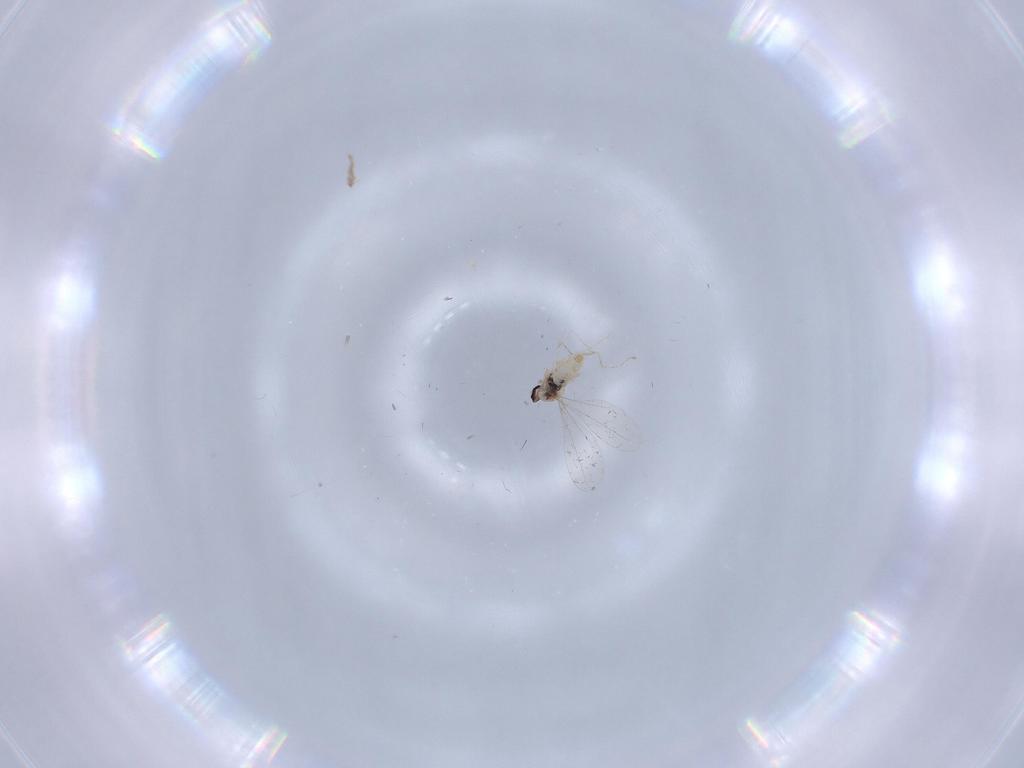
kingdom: Animalia
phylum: Arthropoda
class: Insecta
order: Diptera
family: Cecidomyiidae
